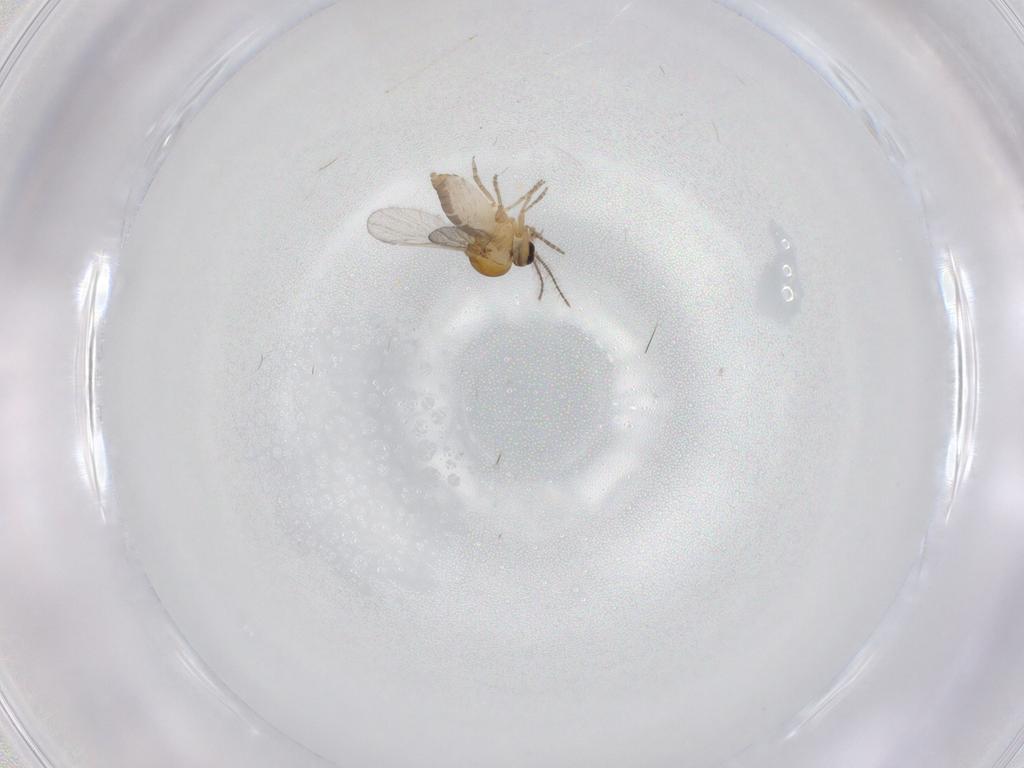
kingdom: Animalia
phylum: Arthropoda
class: Insecta
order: Diptera
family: Ceratopogonidae
